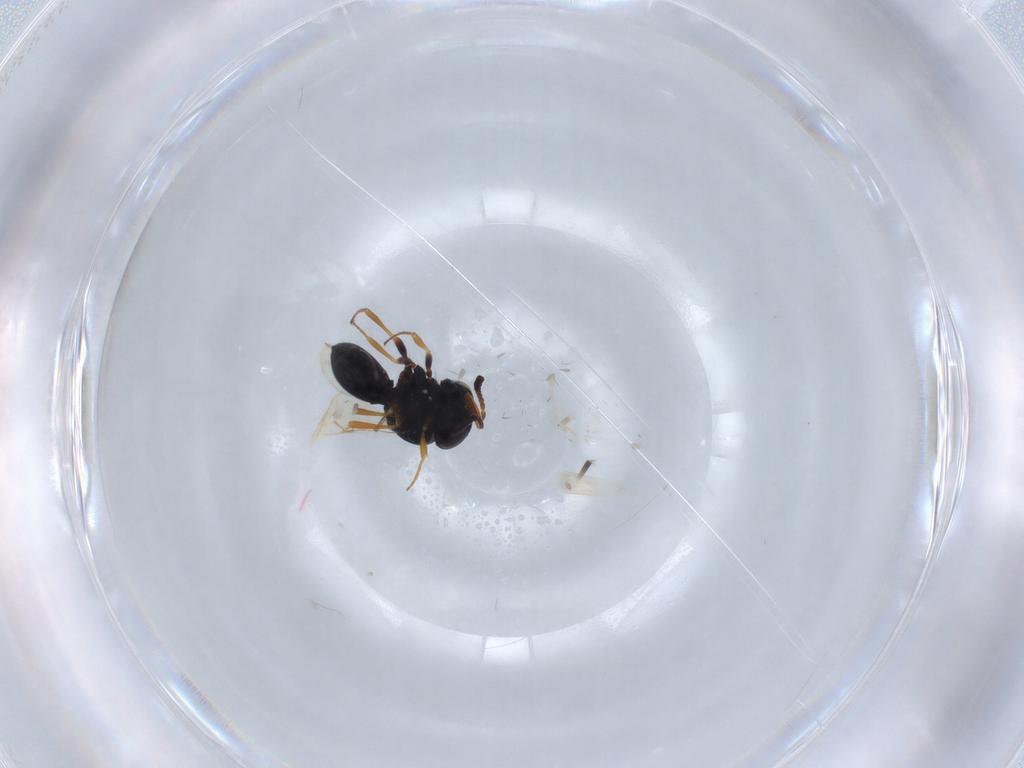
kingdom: Animalia
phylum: Arthropoda
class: Insecta
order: Hymenoptera
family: Scelionidae
